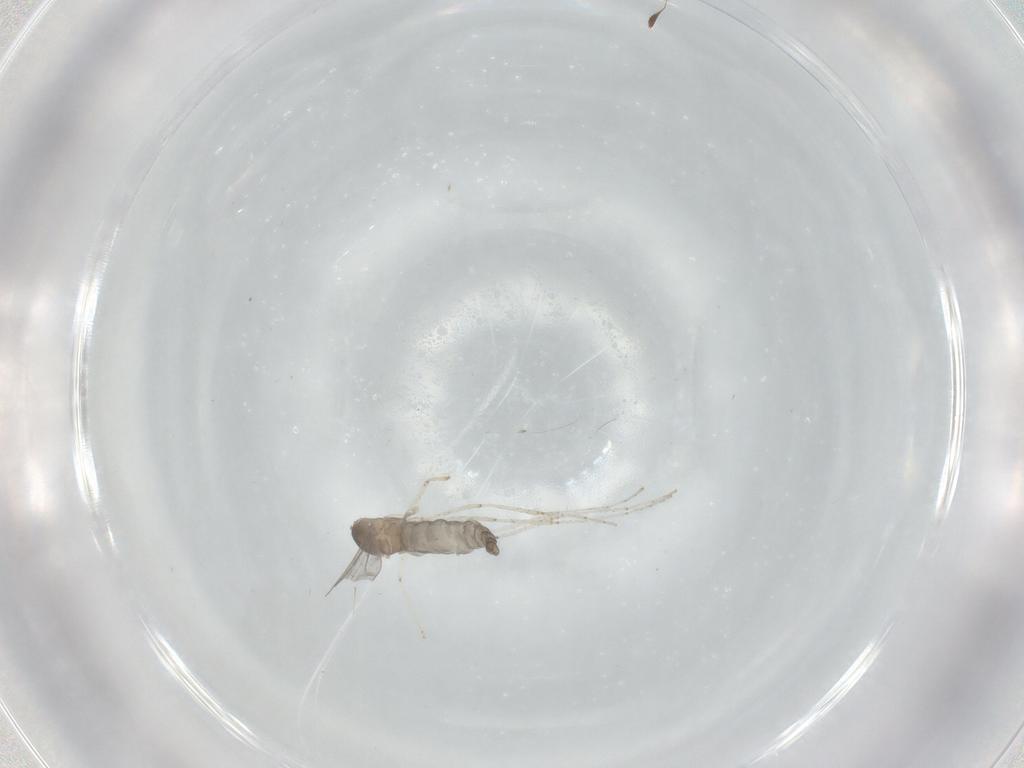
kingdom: Animalia
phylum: Arthropoda
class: Insecta
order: Diptera
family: Cecidomyiidae
